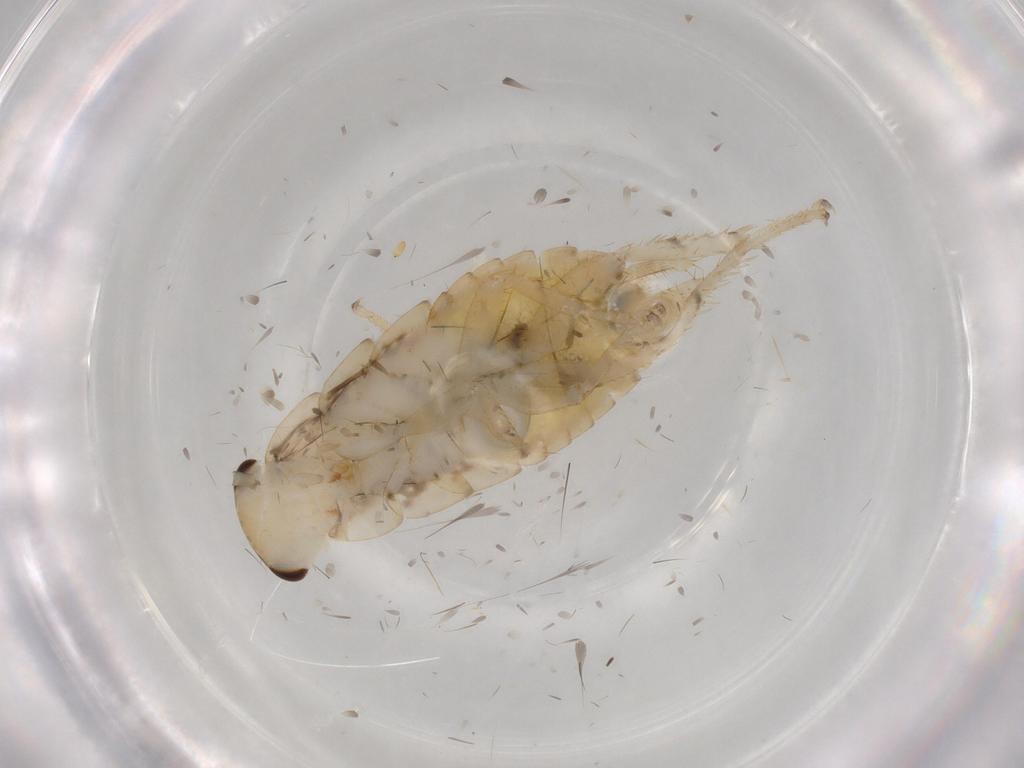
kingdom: Animalia
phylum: Arthropoda
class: Insecta
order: Blattodea
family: Ectobiidae
